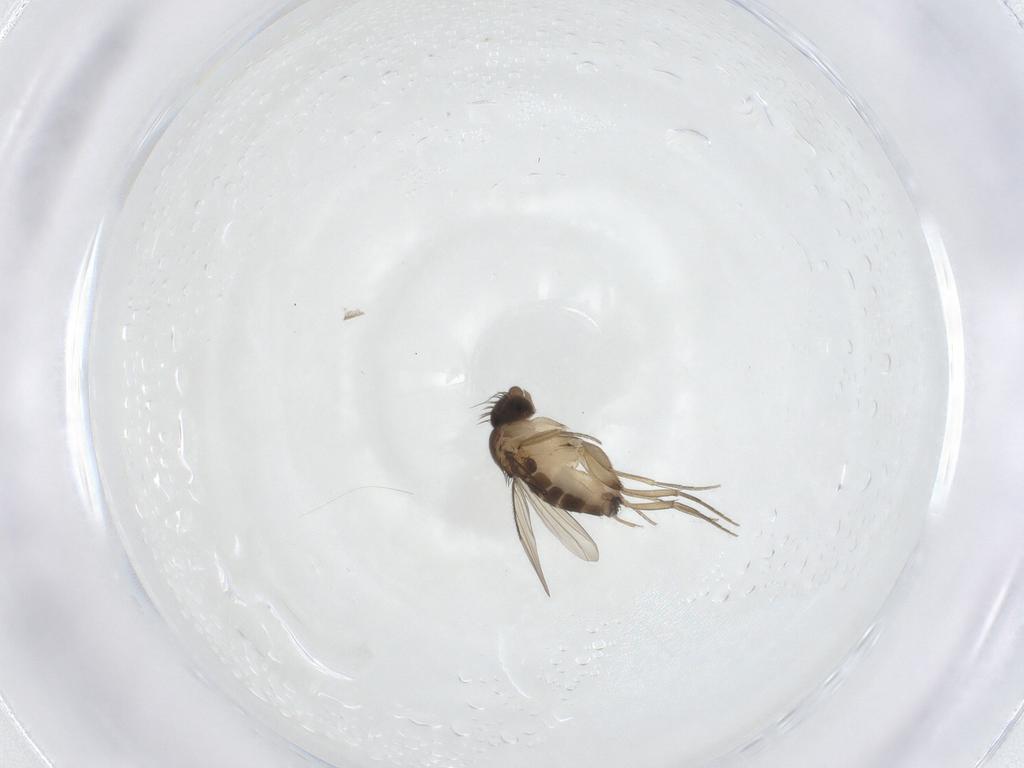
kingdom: Animalia
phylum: Arthropoda
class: Insecta
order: Diptera
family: Phoridae
